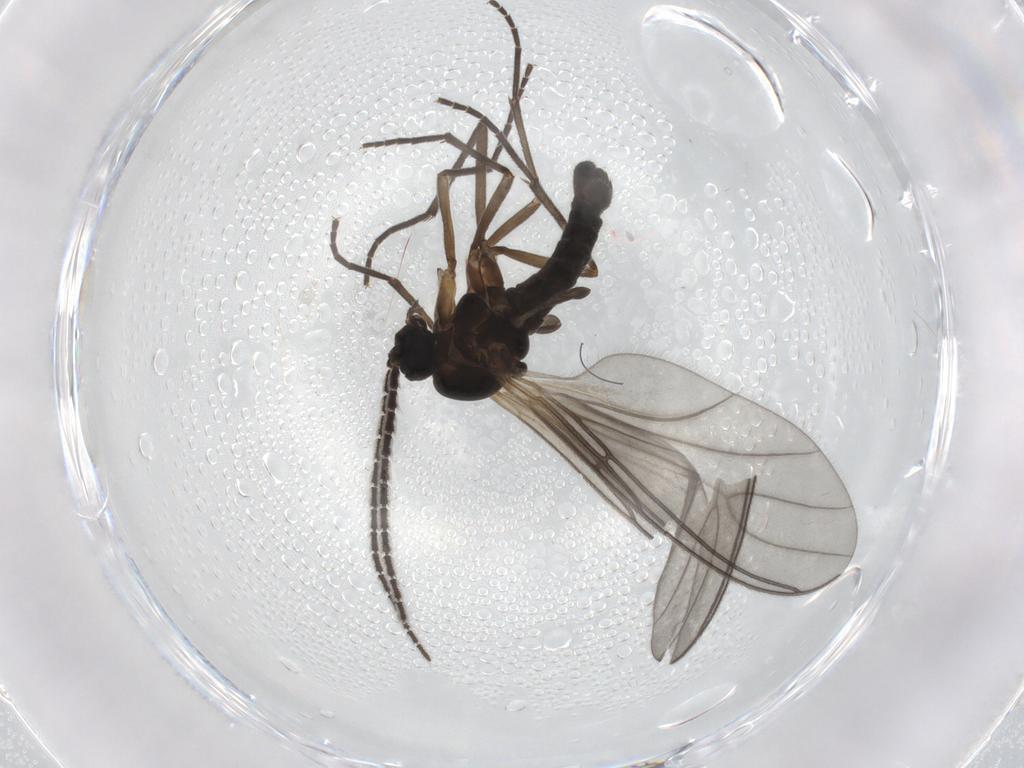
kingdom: Animalia
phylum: Arthropoda
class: Insecta
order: Diptera
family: Sciaridae
